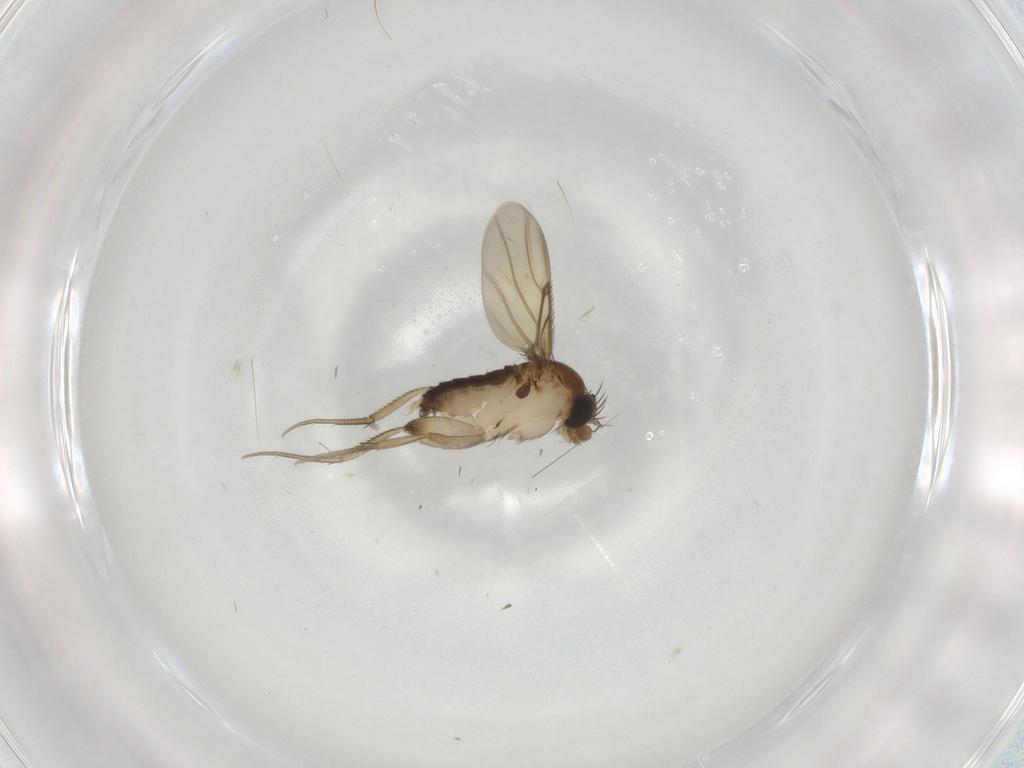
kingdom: Animalia
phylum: Arthropoda
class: Insecta
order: Diptera
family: Phoridae
